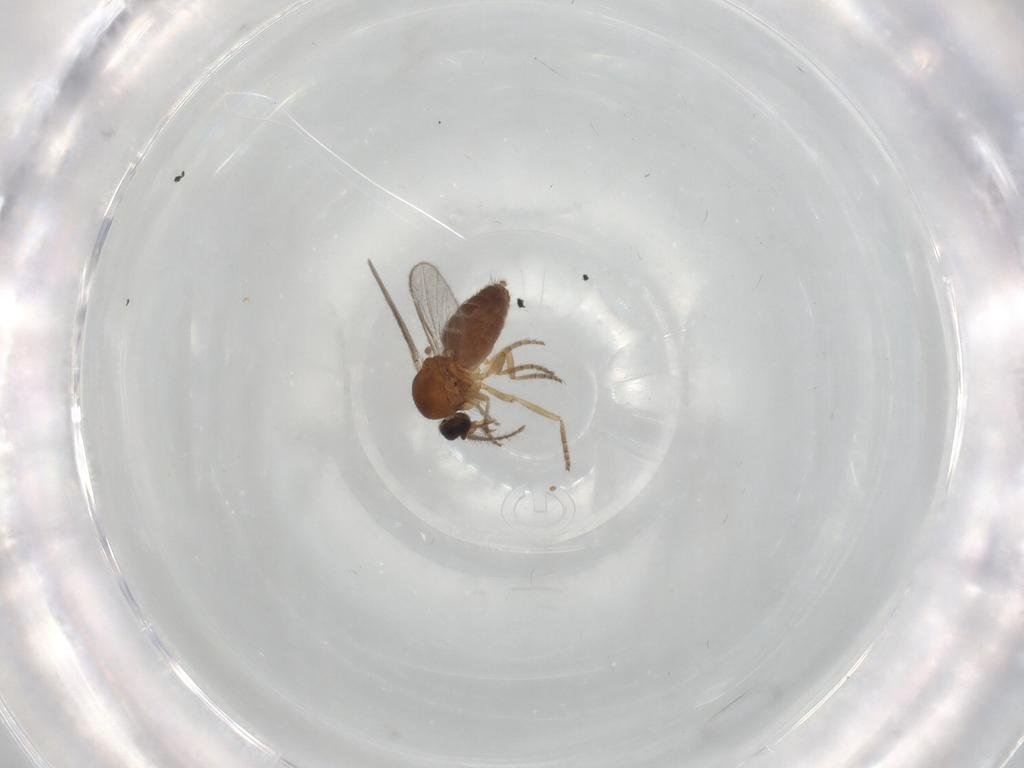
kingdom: Animalia
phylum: Arthropoda
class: Insecta
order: Diptera
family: Ceratopogonidae
